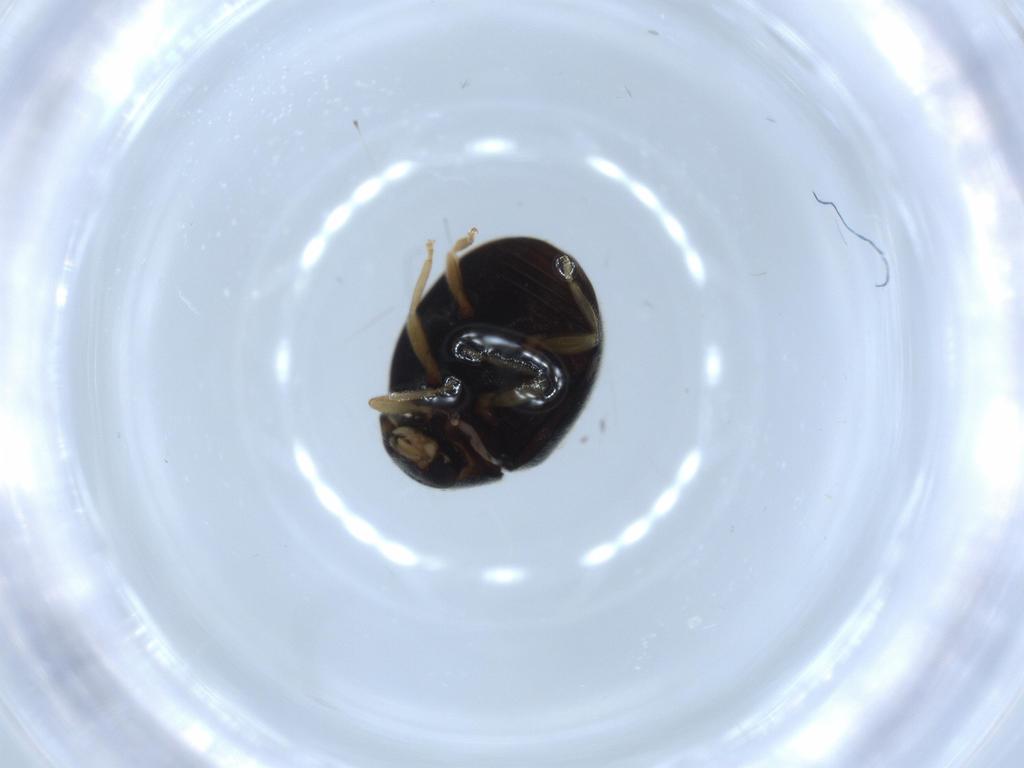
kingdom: Animalia
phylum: Arthropoda
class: Insecta
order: Coleoptera
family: Coccinellidae
